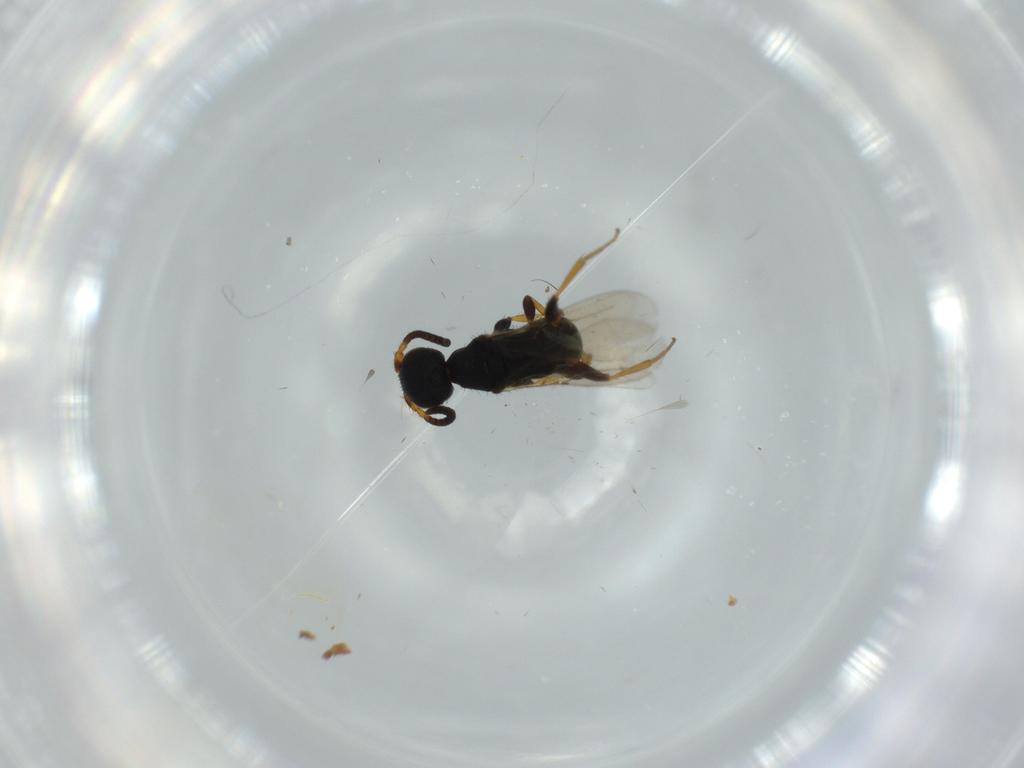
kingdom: Animalia
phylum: Arthropoda
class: Insecta
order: Hymenoptera
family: Bethylidae
